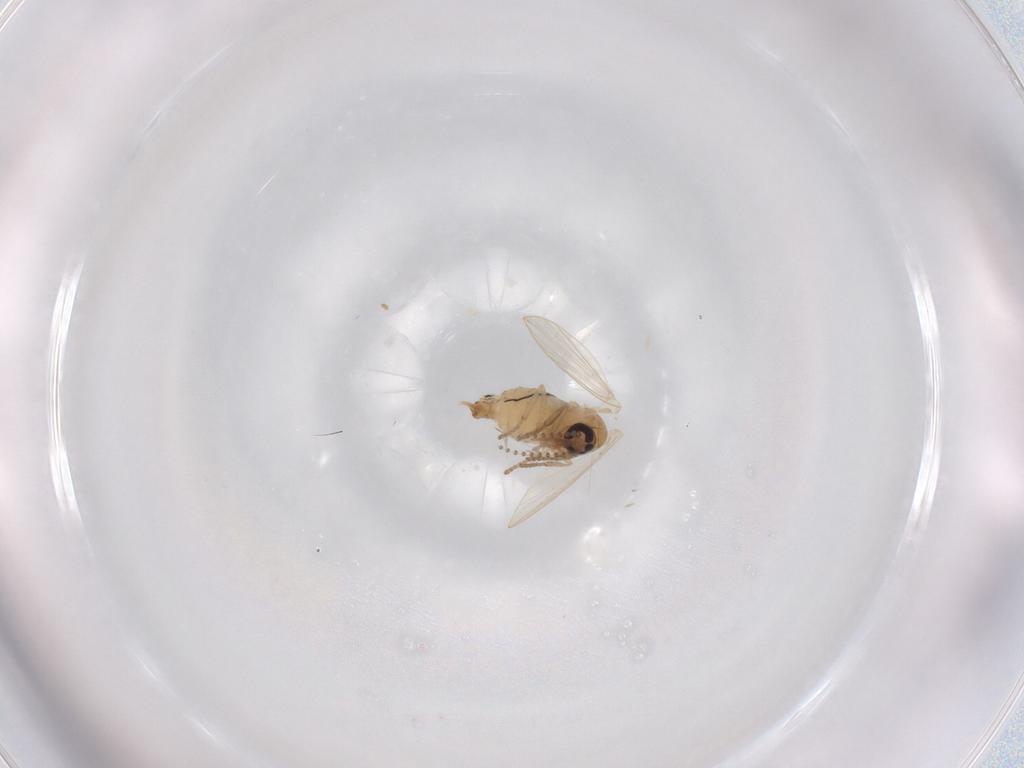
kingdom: Animalia
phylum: Arthropoda
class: Insecta
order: Diptera
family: Psychodidae
